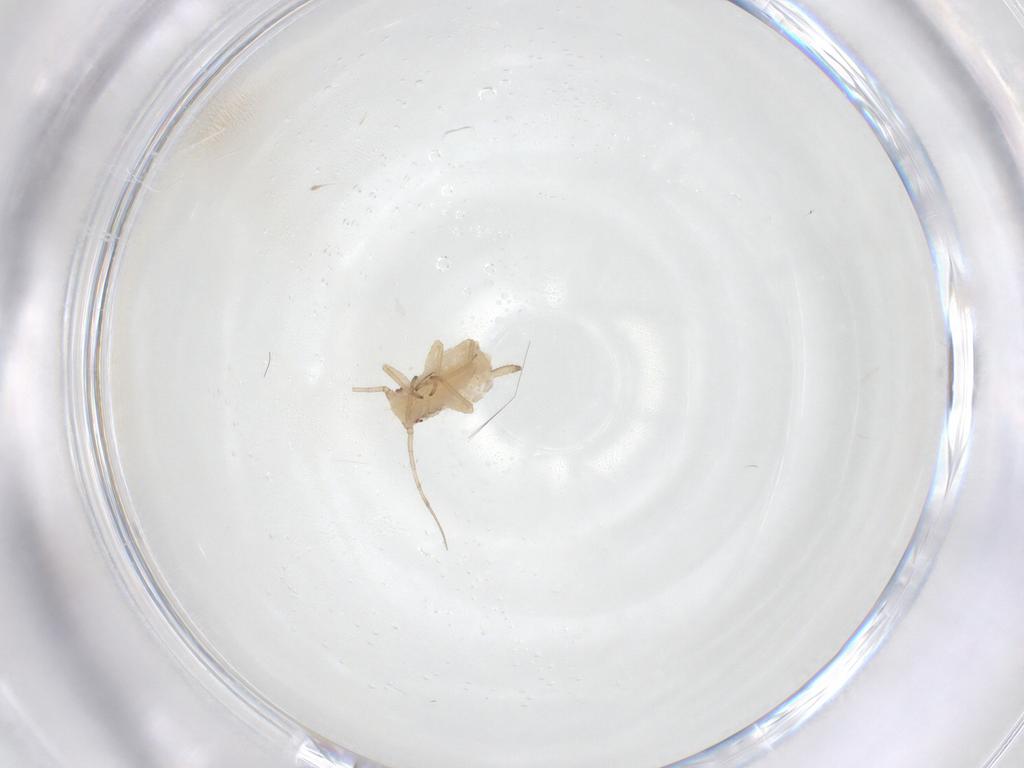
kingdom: Animalia
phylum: Arthropoda
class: Insecta
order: Hemiptera
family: Aphididae
